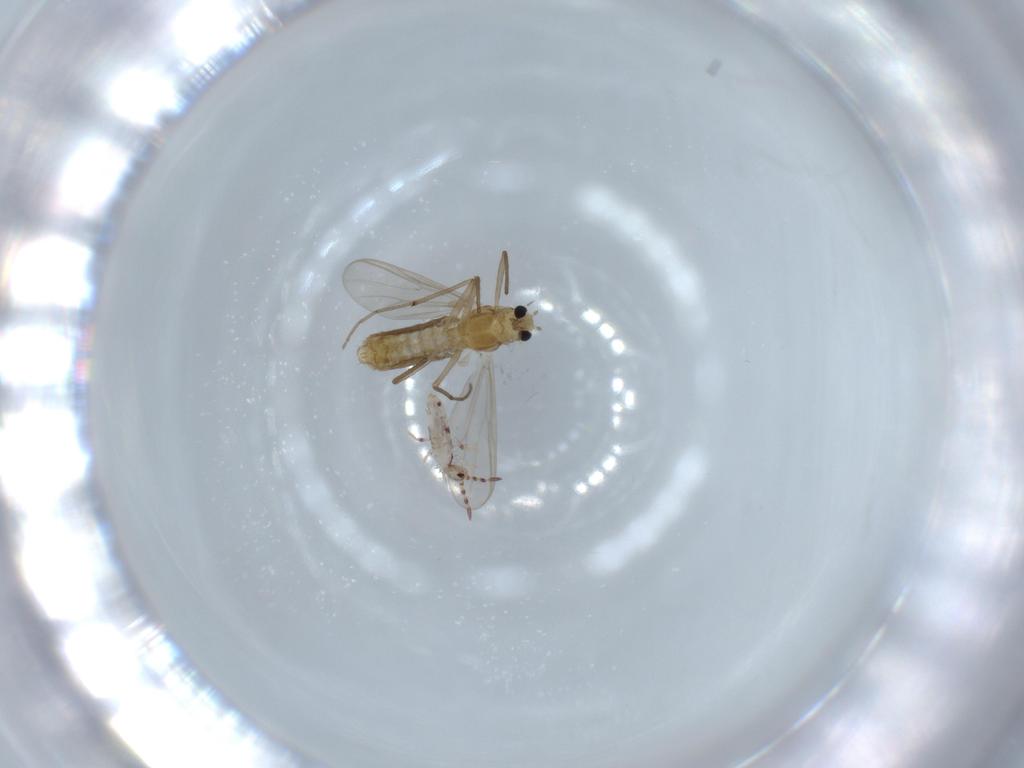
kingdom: Animalia
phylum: Arthropoda
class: Collembola
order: Entomobryomorpha
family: Entomobryidae
